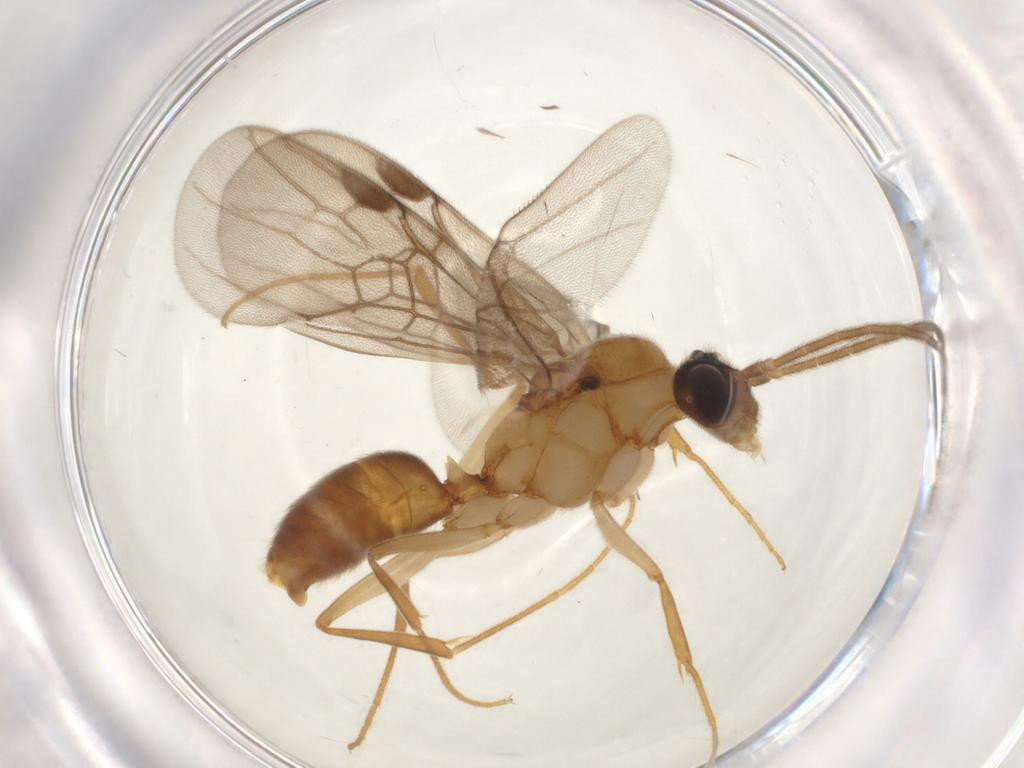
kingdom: Animalia
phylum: Arthropoda
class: Insecta
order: Hymenoptera
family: Formicidae
